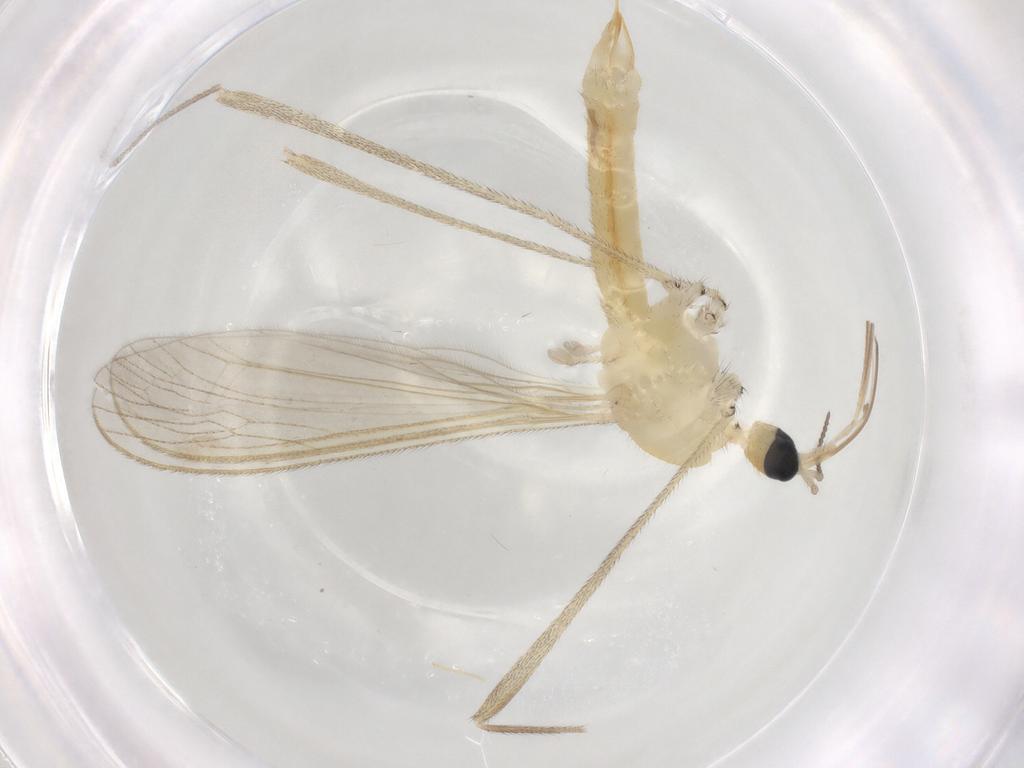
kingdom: Animalia
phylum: Arthropoda
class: Insecta
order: Diptera
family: Limoniidae
